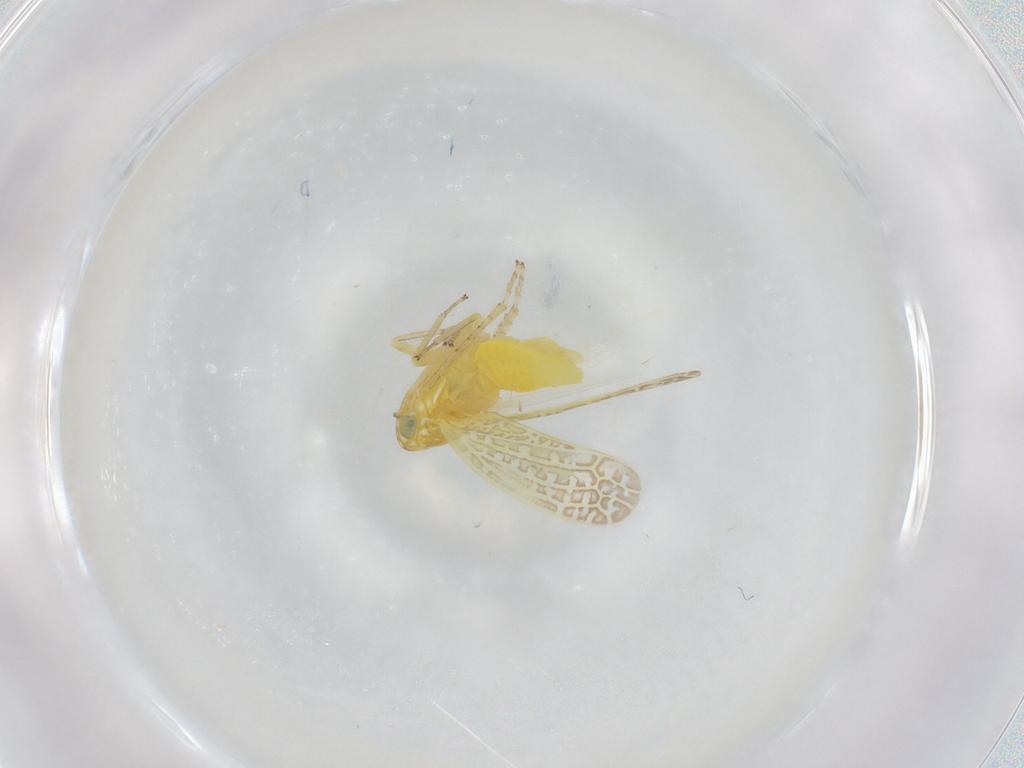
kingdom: Animalia
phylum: Arthropoda
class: Insecta
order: Hemiptera
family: Cicadellidae
